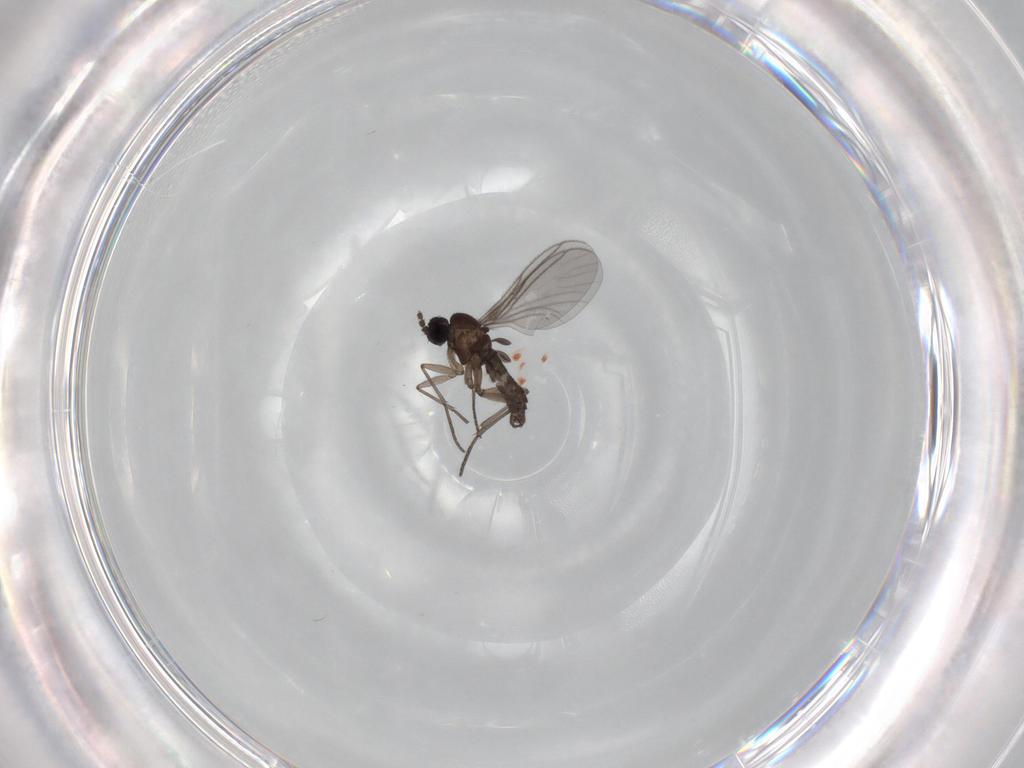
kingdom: Animalia
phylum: Arthropoda
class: Insecta
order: Diptera
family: Sciaridae
